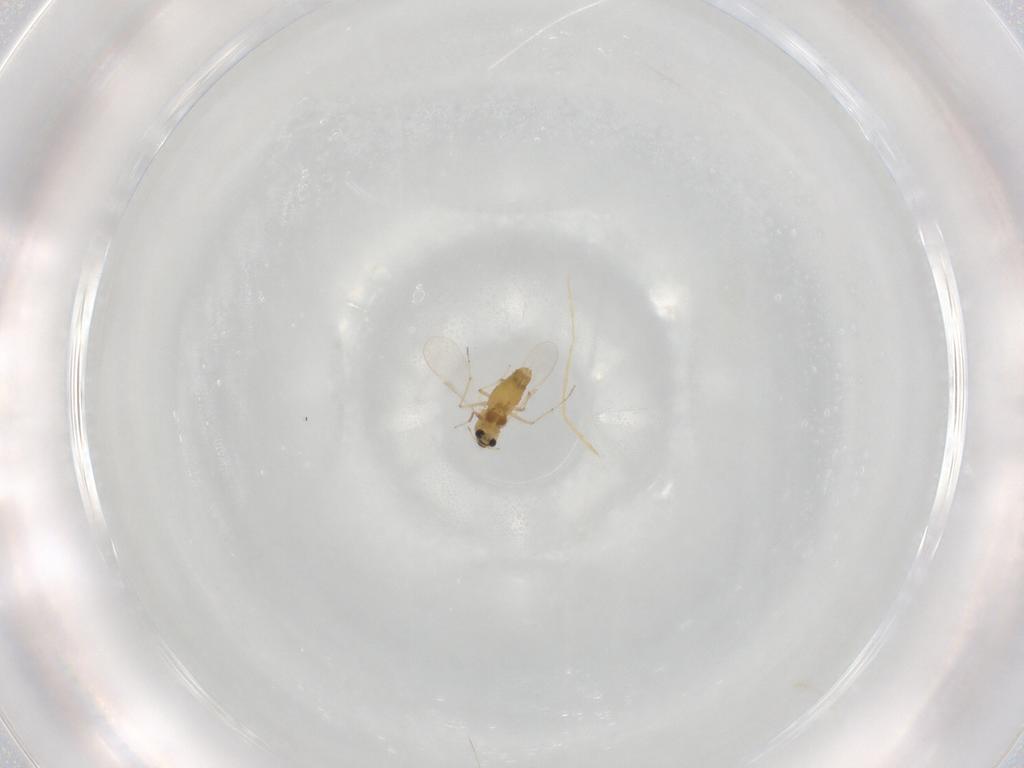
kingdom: Animalia
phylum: Arthropoda
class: Insecta
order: Diptera
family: Chironomidae
